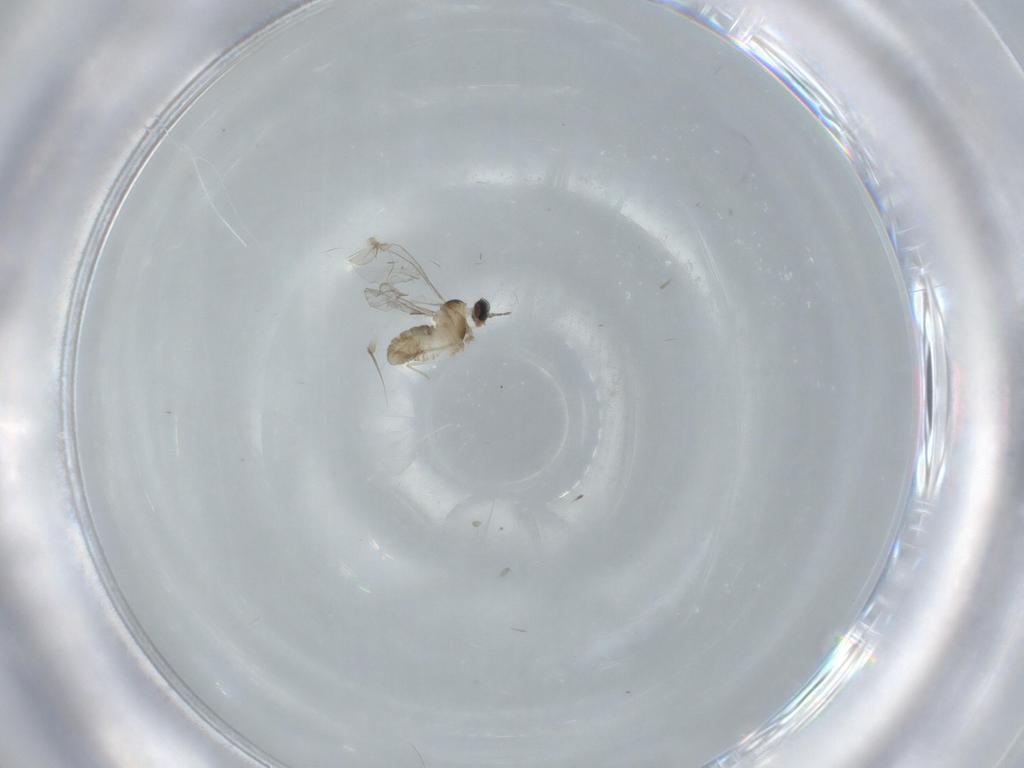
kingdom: Animalia
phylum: Arthropoda
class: Insecta
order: Diptera
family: Cecidomyiidae
